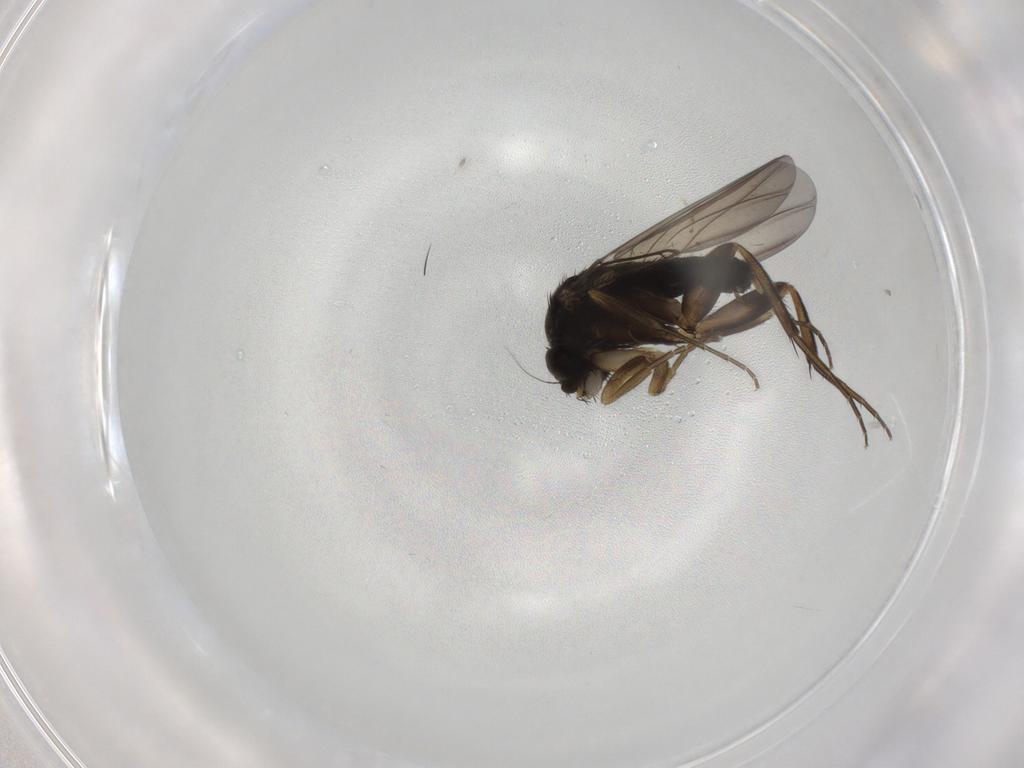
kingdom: Animalia
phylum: Arthropoda
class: Insecta
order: Diptera
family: Phoridae
